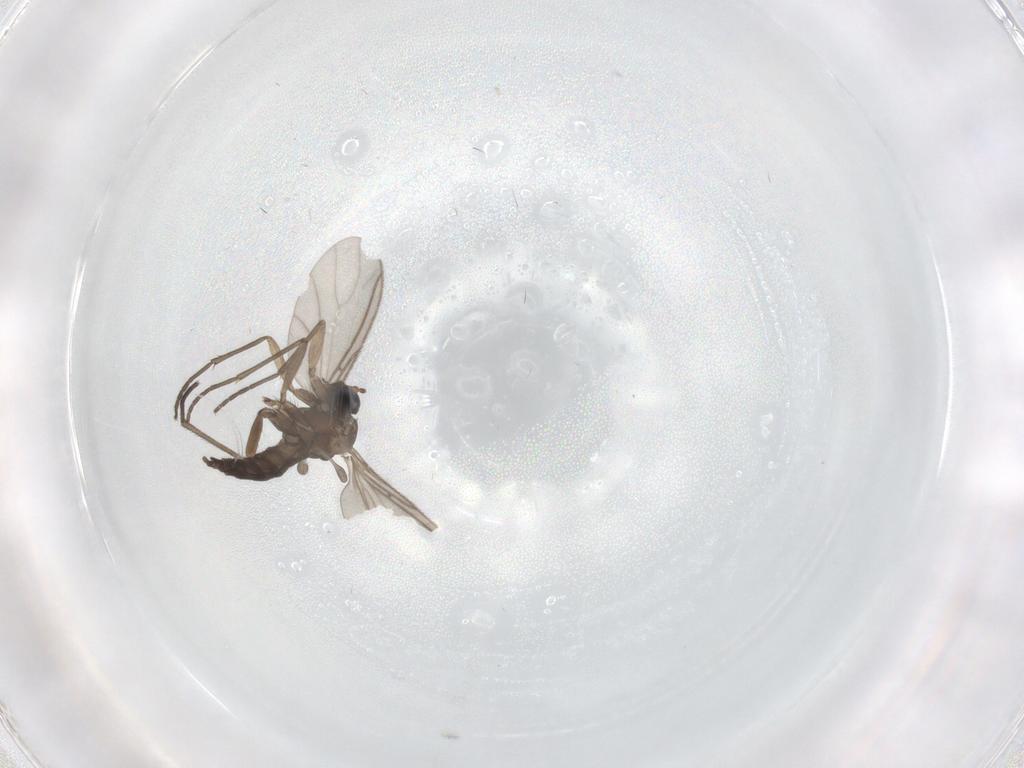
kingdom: Animalia
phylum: Arthropoda
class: Insecta
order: Diptera
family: Sciaridae
